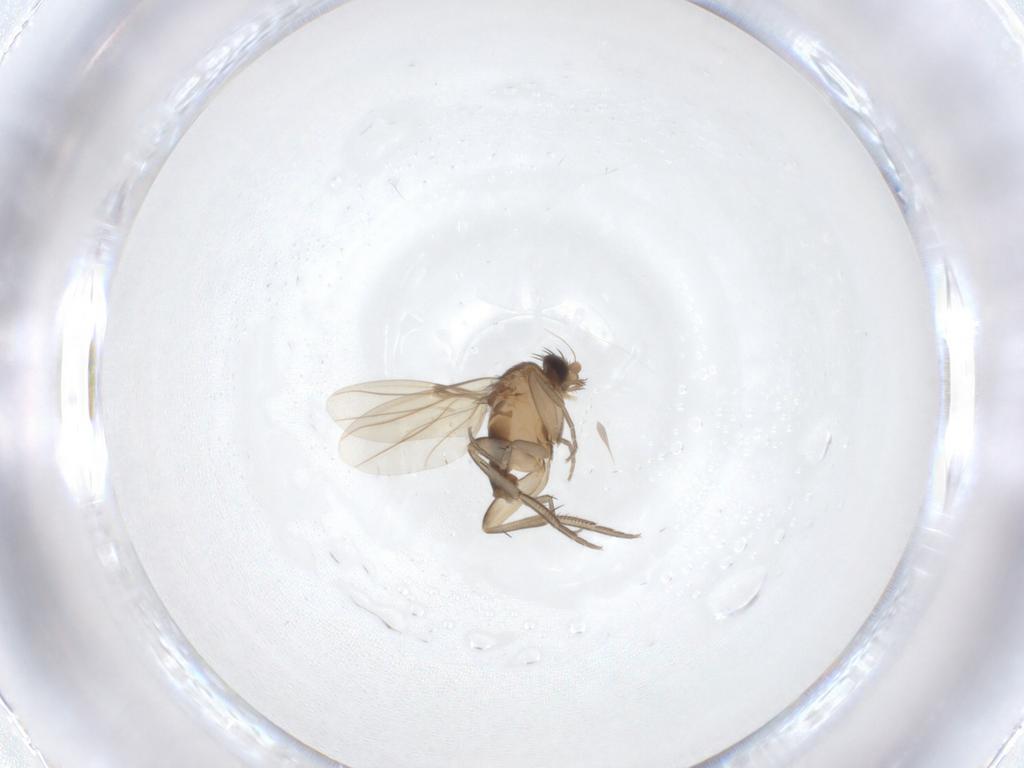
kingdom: Animalia
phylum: Arthropoda
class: Insecta
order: Diptera
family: Phoridae
